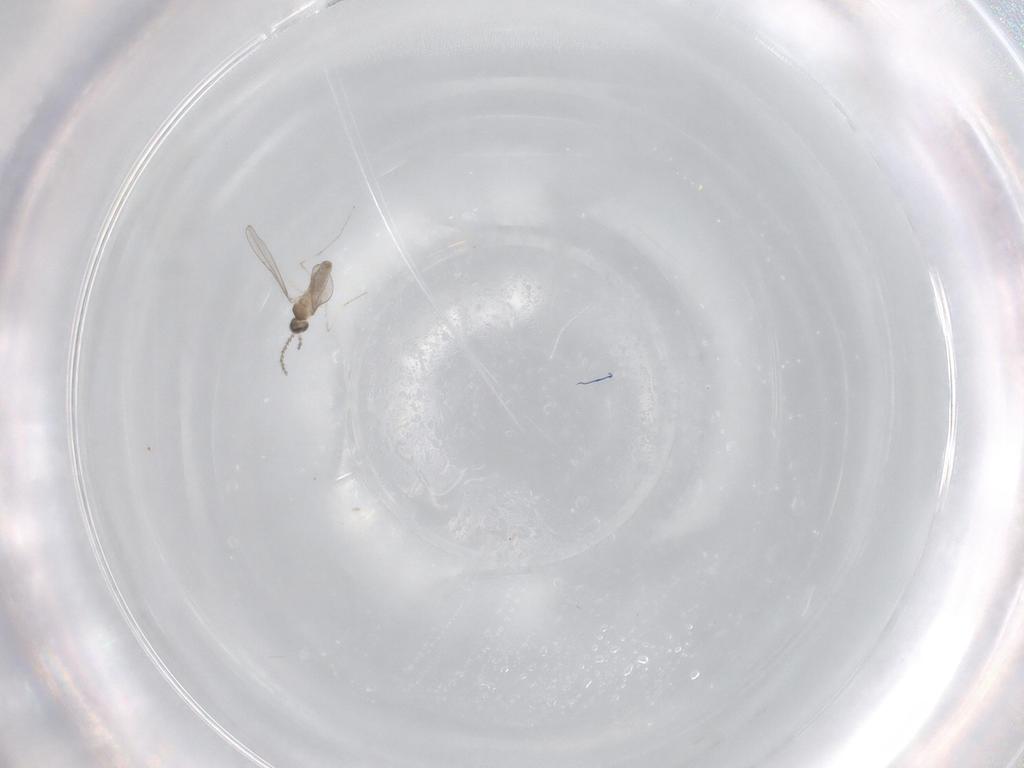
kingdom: Animalia
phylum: Arthropoda
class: Insecta
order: Diptera
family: Cecidomyiidae
